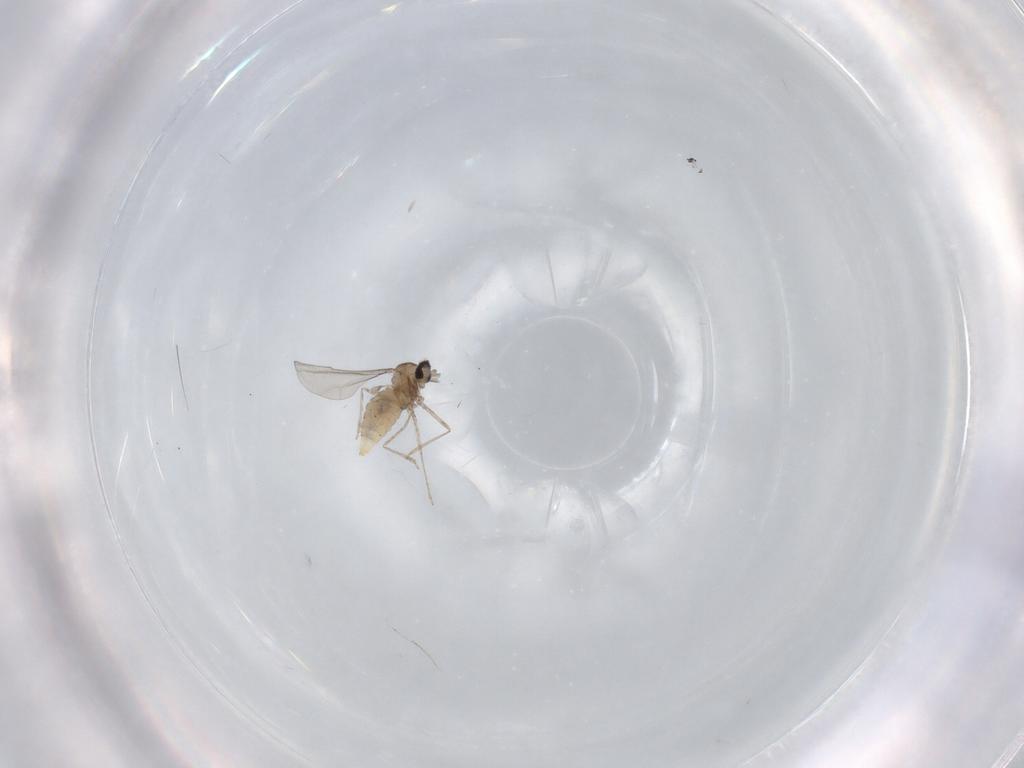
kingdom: Animalia
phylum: Arthropoda
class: Insecta
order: Diptera
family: Cecidomyiidae
